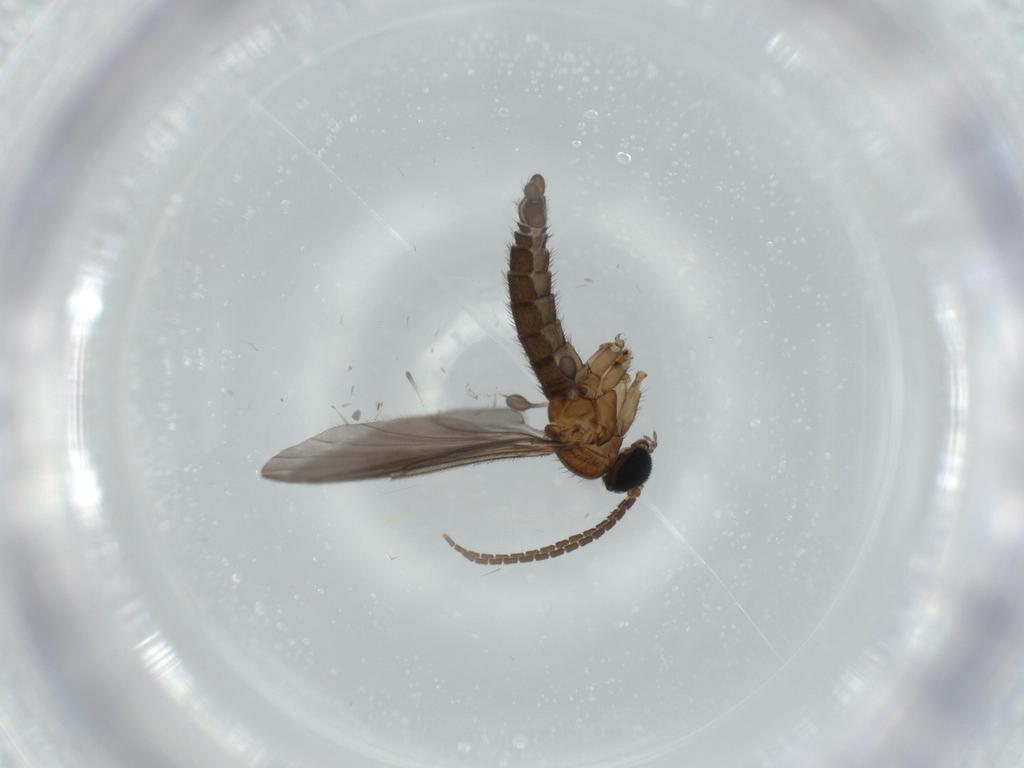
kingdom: Animalia
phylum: Arthropoda
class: Insecta
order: Diptera
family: Sciaridae
